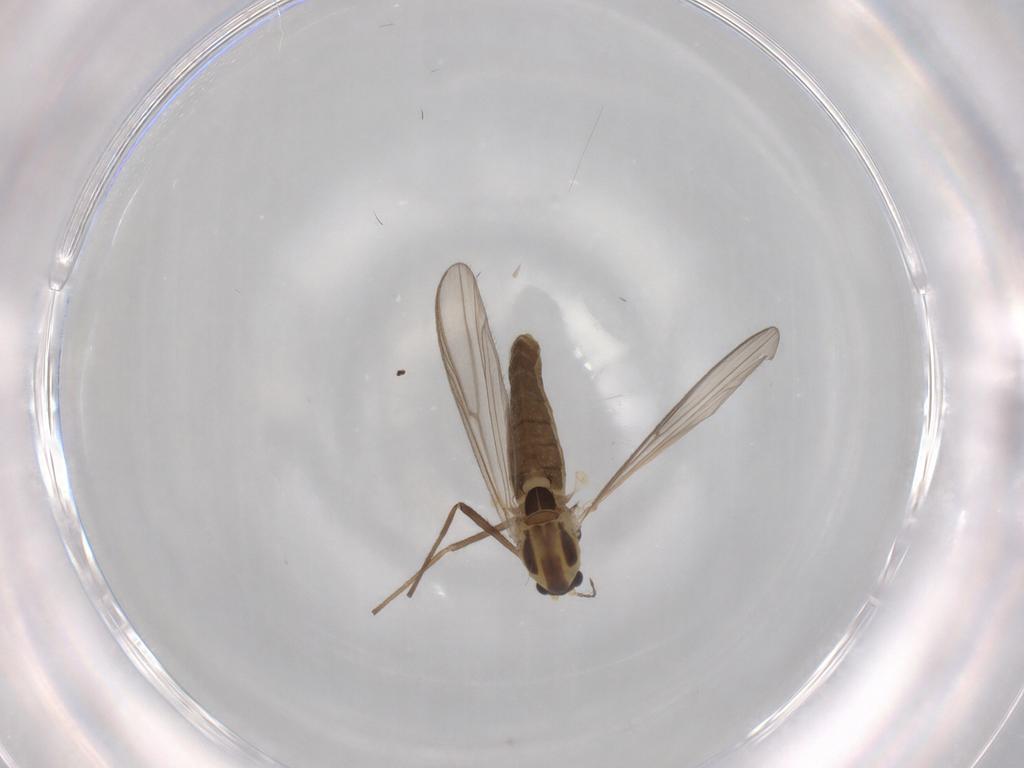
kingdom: Animalia
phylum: Arthropoda
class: Insecta
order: Diptera
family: Chironomidae
